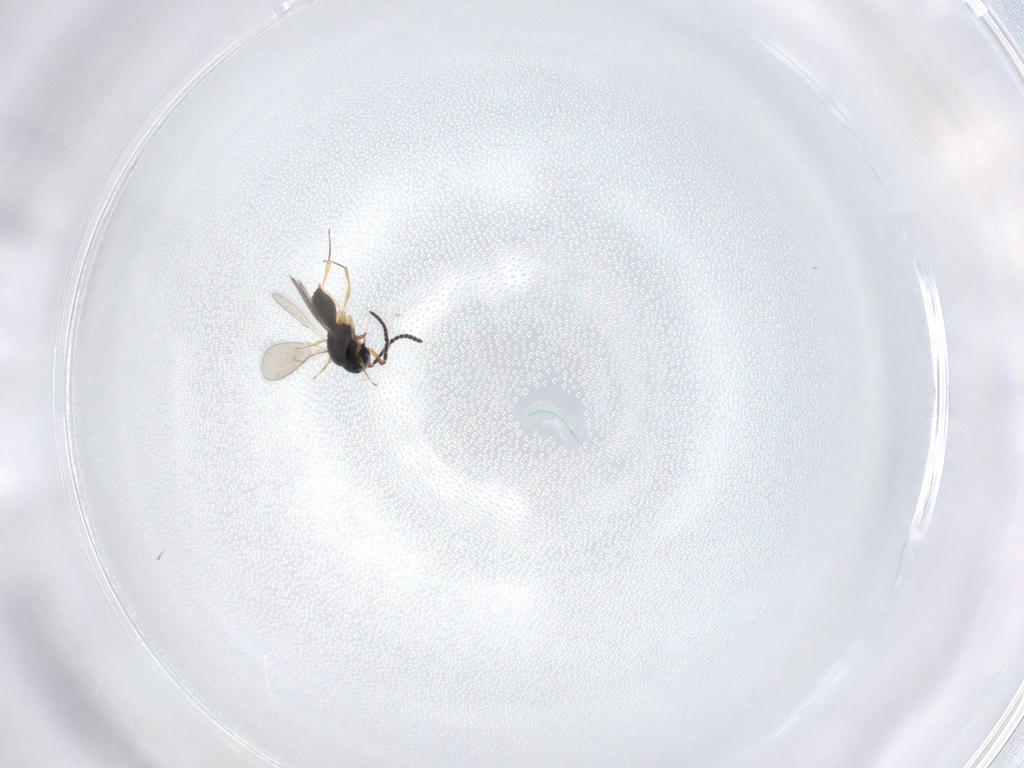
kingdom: Animalia
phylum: Arthropoda
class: Insecta
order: Hymenoptera
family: Scelionidae
